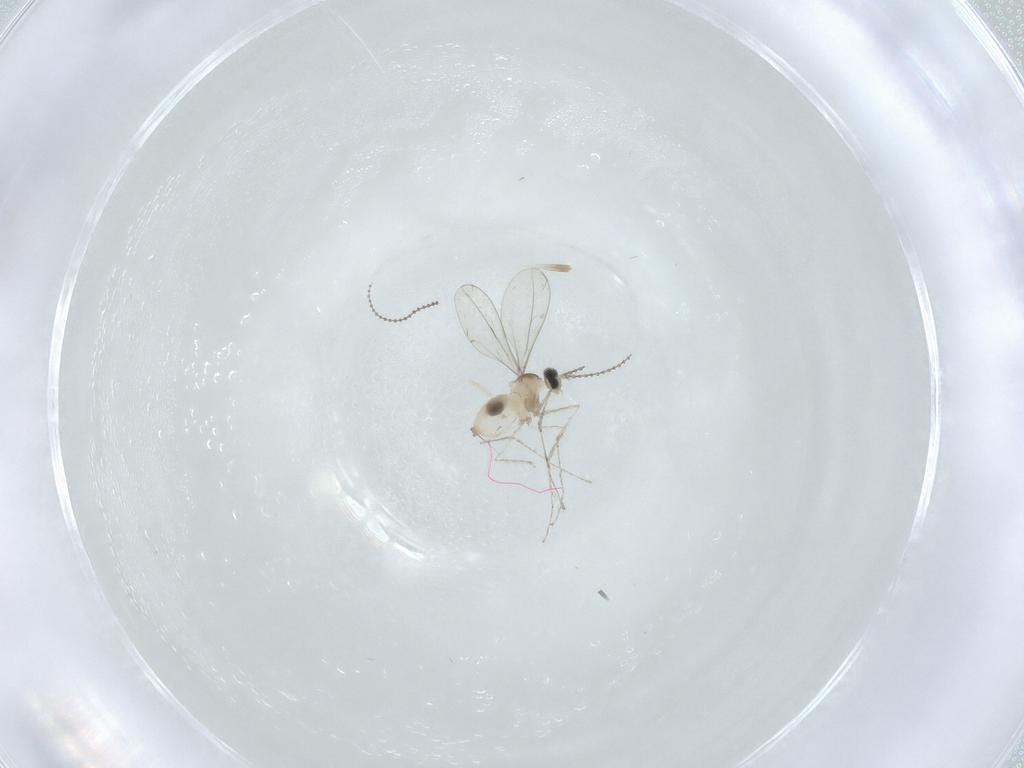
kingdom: Animalia
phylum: Arthropoda
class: Insecta
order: Diptera
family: Cecidomyiidae
